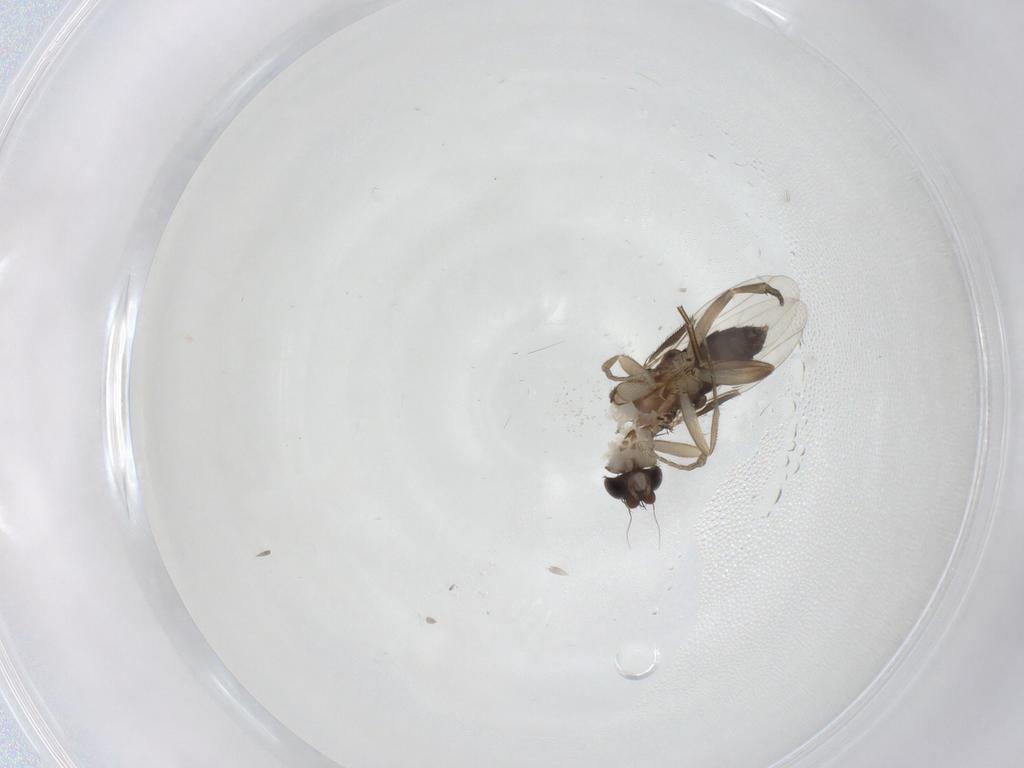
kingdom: Animalia
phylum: Arthropoda
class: Insecta
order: Diptera
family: Phoridae
